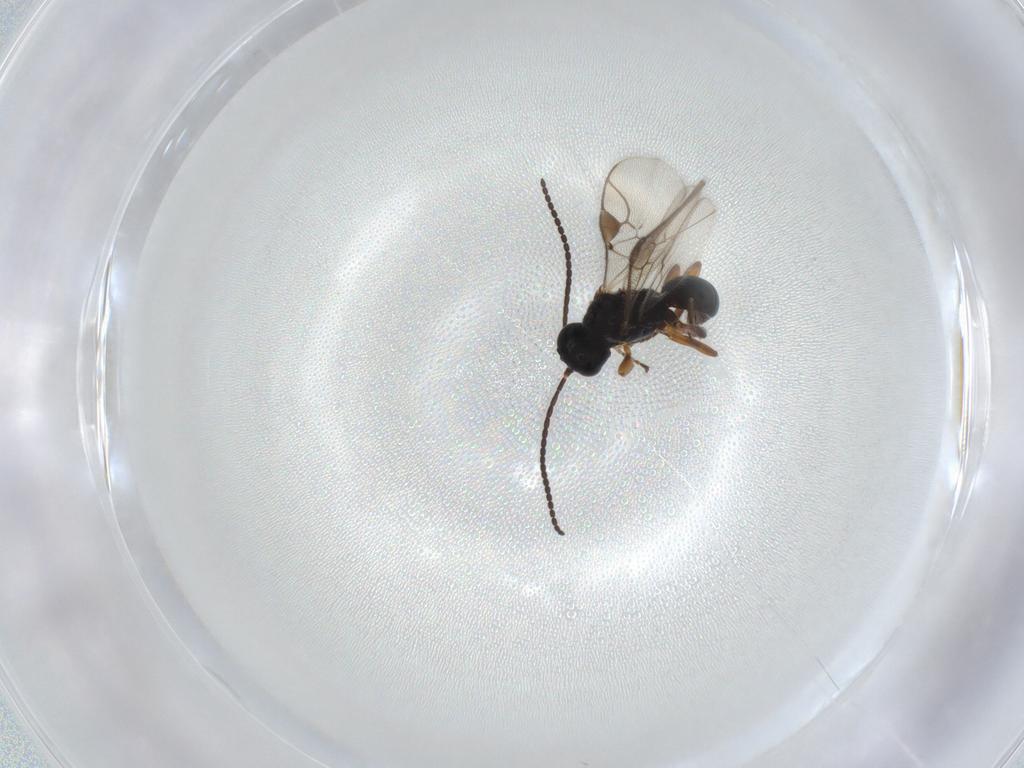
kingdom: Animalia
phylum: Arthropoda
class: Insecta
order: Hymenoptera
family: Braconidae
